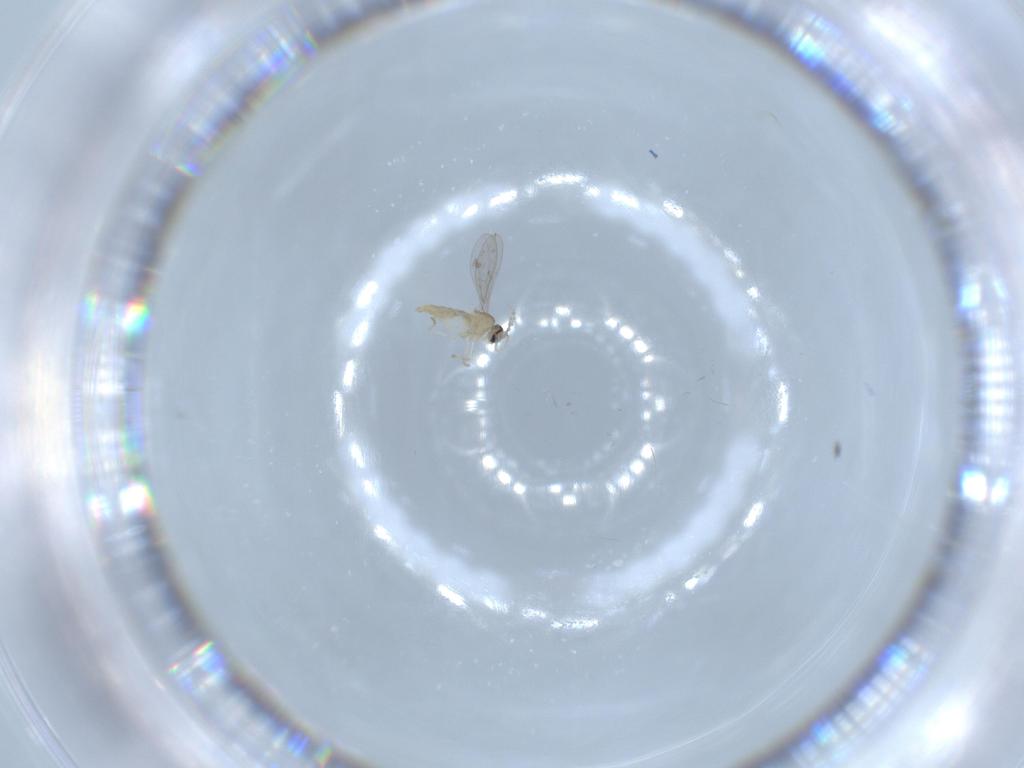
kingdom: Animalia
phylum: Arthropoda
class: Insecta
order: Diptera
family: Cecidomyiidae
